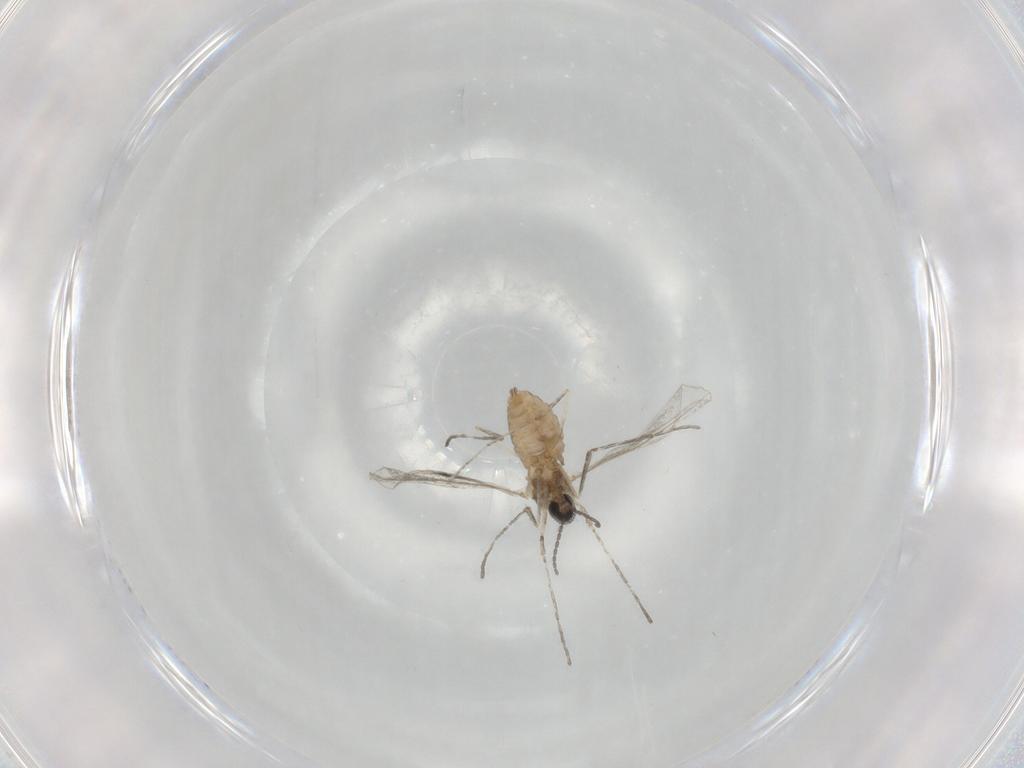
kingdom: Animalia
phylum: Arthropoda
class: Insecta
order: Diptera
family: Cecidomyiidae
